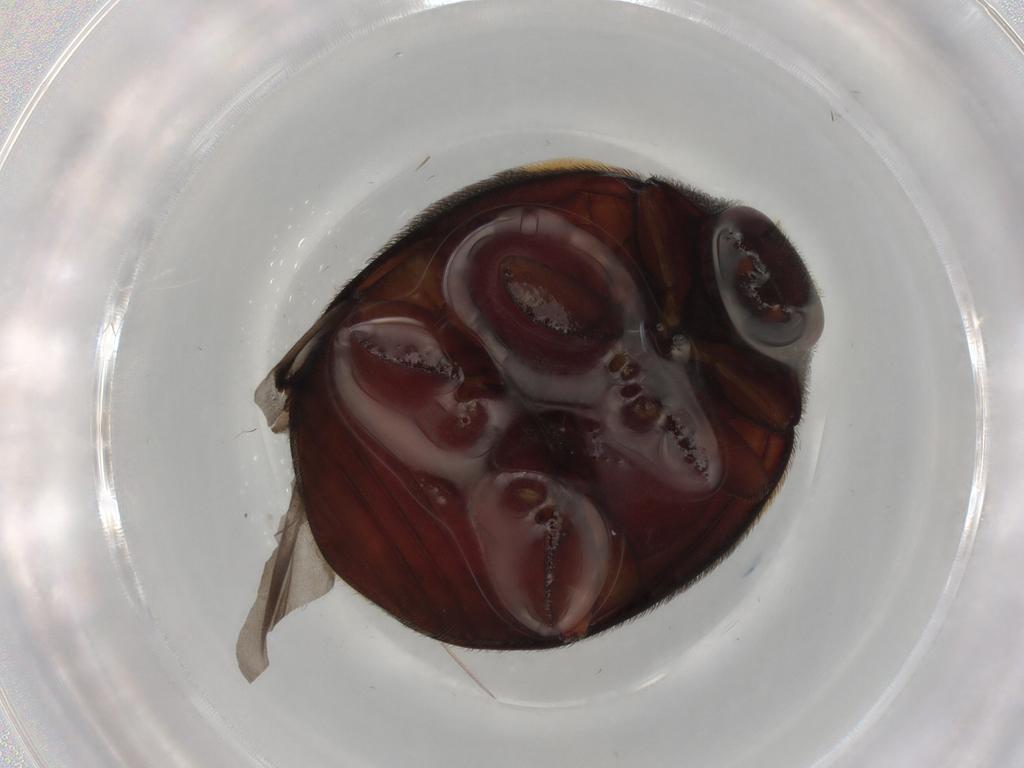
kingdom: Animalia
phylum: Arthropoda
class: Insecta
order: Coleoptera
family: Coccinellidae
